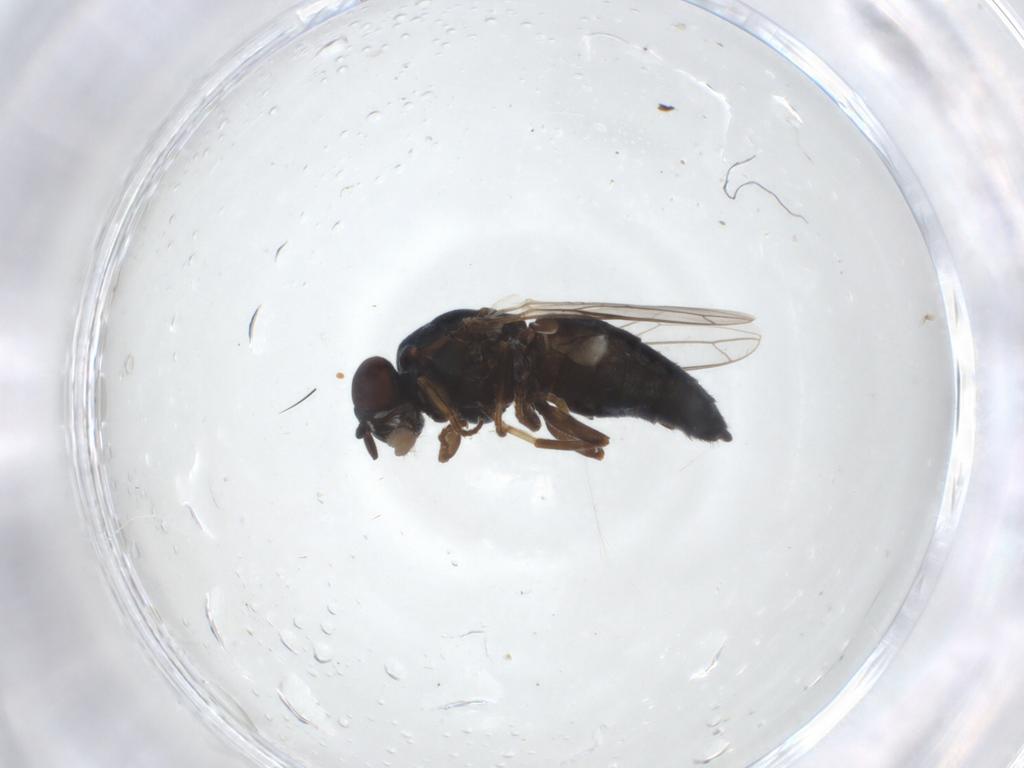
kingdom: Animalia
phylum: Arthropoda
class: Insecta
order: Diptera
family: Scenopinidae
